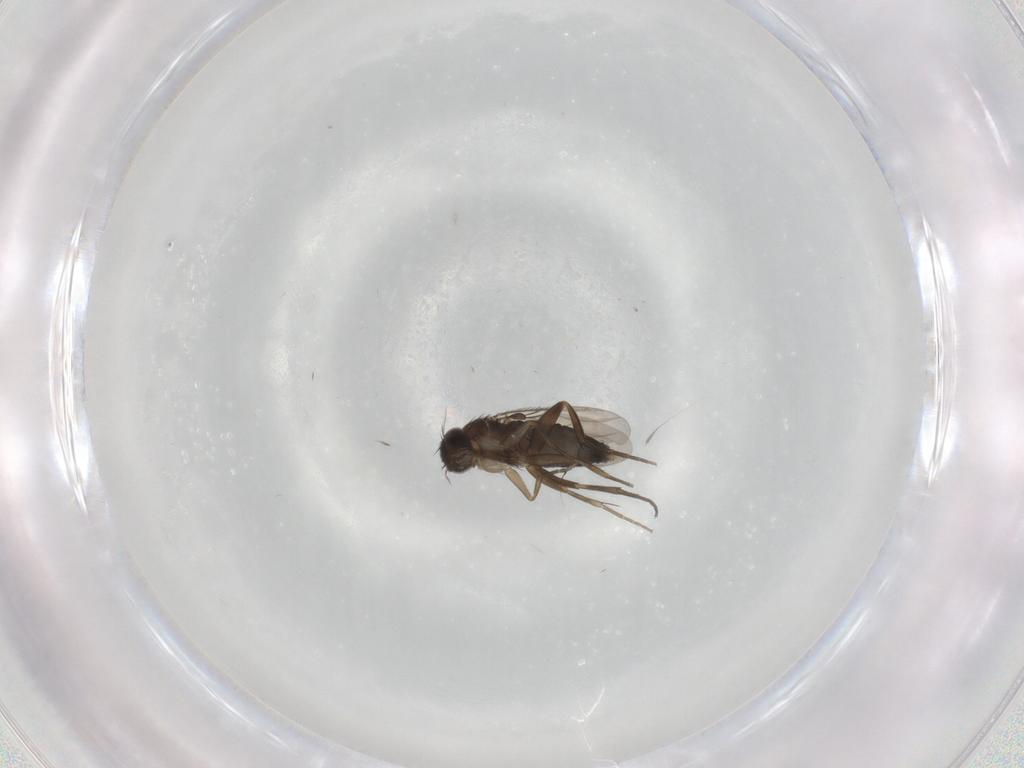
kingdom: Animalia
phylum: Arthropoda
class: Insecta
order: Diptera
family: Phoridae
